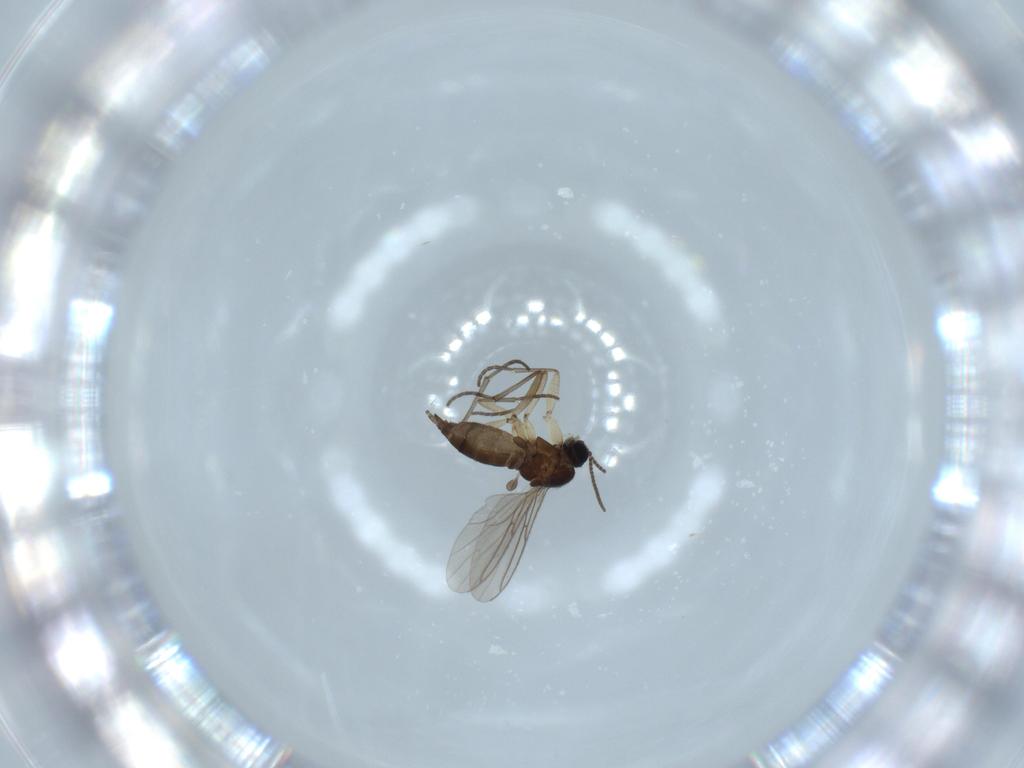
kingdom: Animalia
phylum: Arthropoda
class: Insecta
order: Diptera
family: Sciaridae
